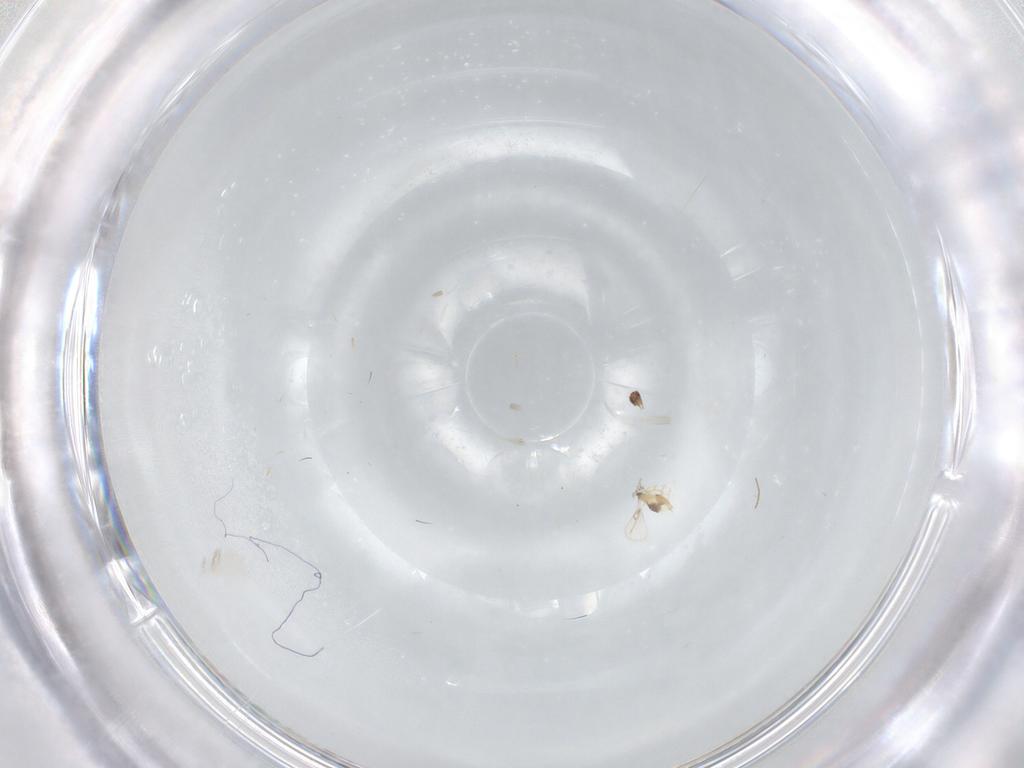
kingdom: Animalia
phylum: Arthropoda
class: Insecta
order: Hymenoptera
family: Trichogrammatidae
